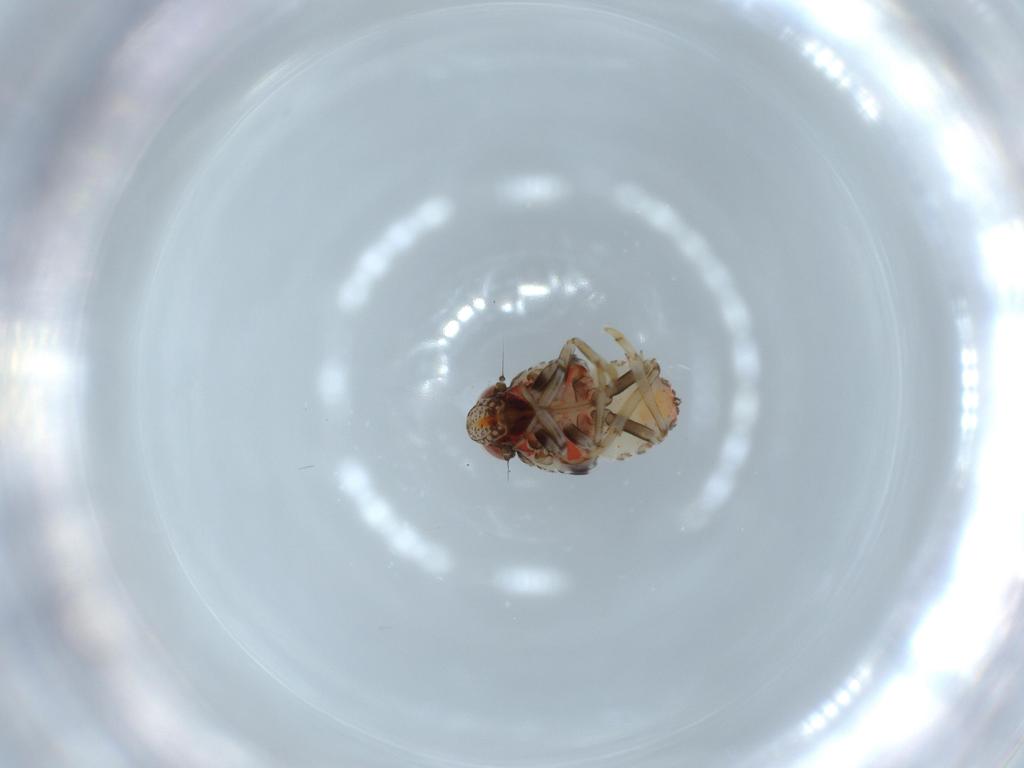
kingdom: Animalia
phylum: Arthropoda
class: Insecta
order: Hemiptera
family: Issidae
